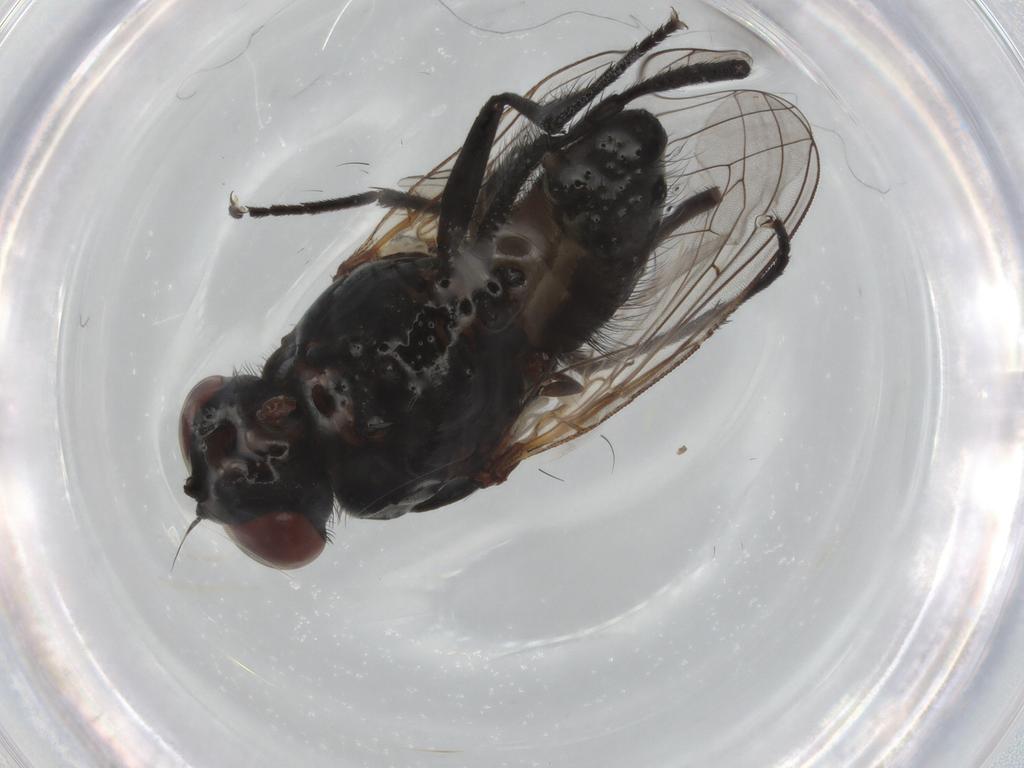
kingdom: Animalia
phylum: Arthropoda
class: Insecta
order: Diptera
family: Anthomyiidae
